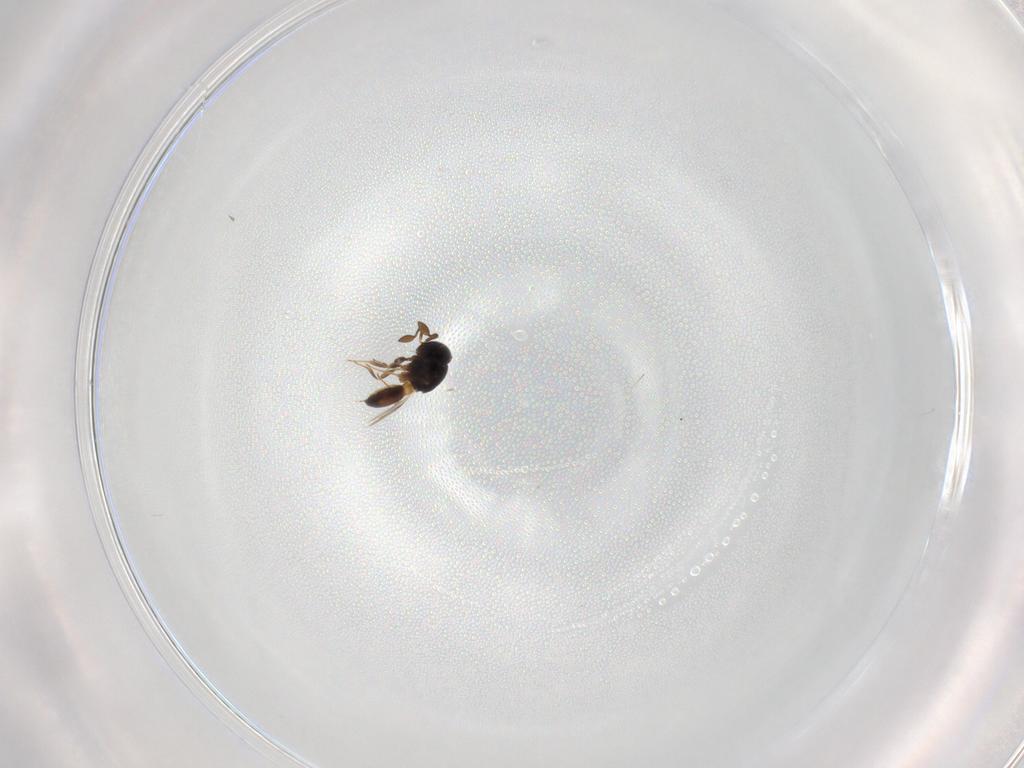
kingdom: Animalia
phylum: Arthropoda
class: Insecta
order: Hymenoptera
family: Scelionidae
